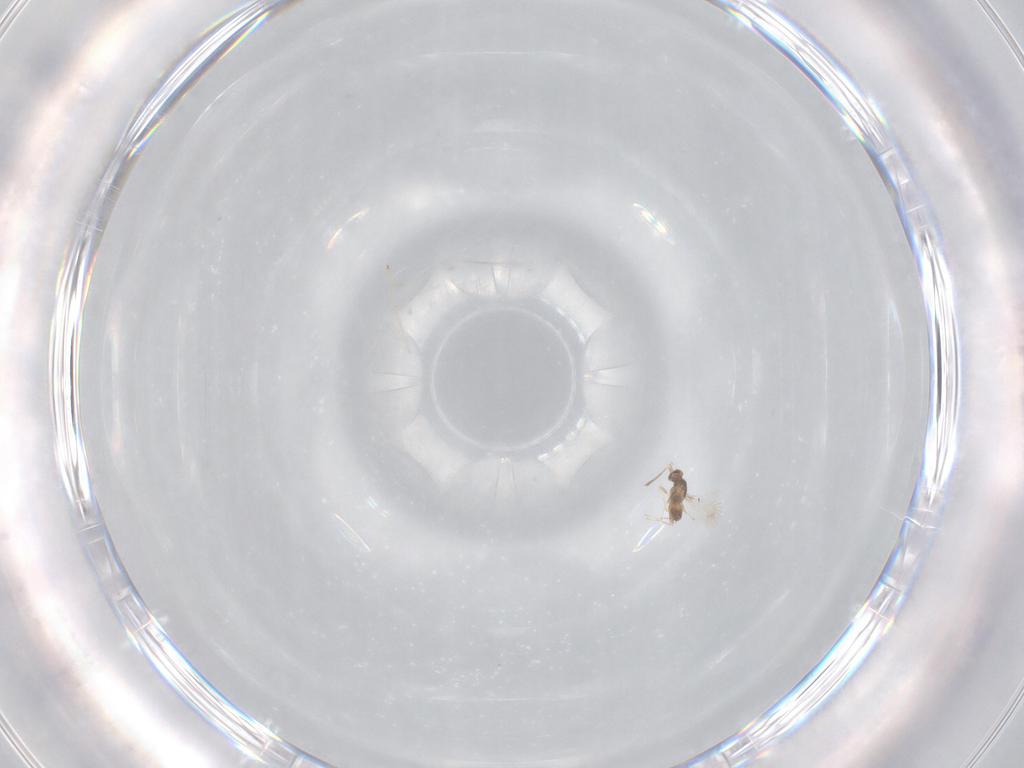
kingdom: Animalia
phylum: Arthropoda
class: Insecta
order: Hymenoptera
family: Mymaridae
